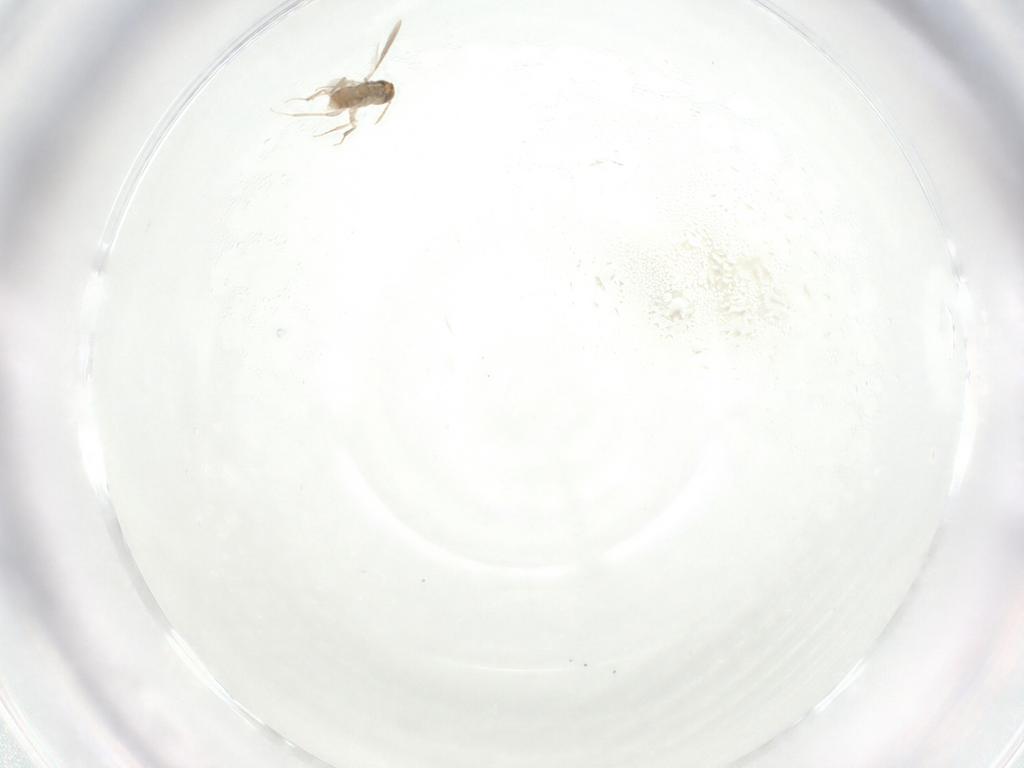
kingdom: Animalia
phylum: Arthropoda
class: Insecta
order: Hymenoptera
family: Aphelinidae
